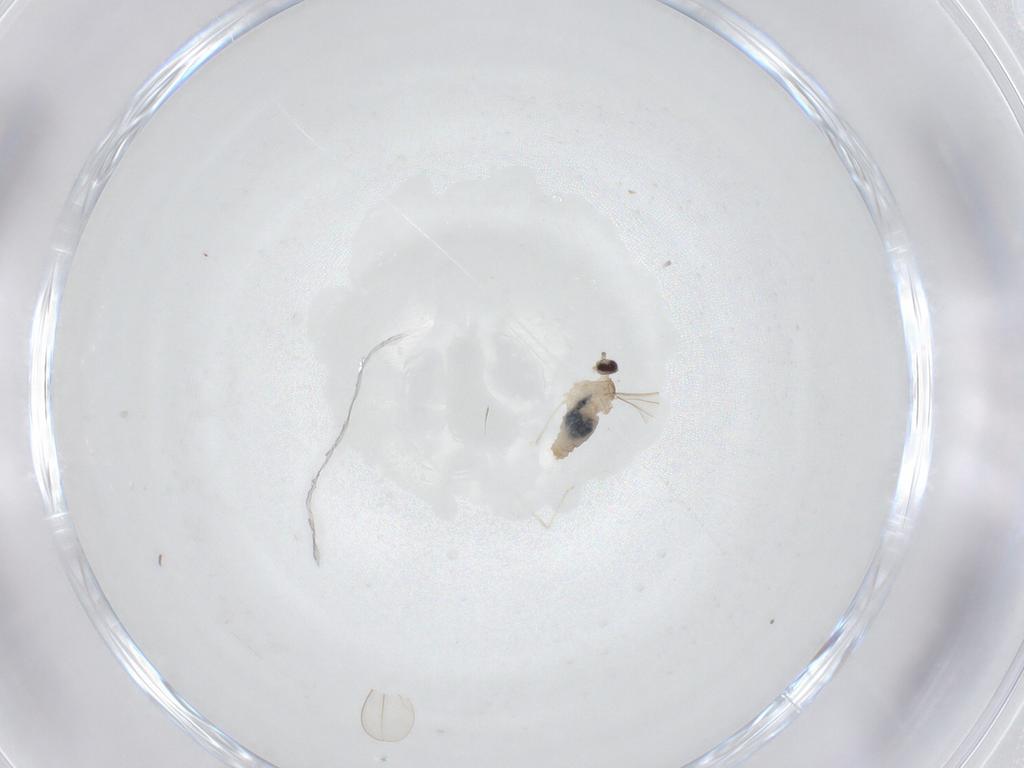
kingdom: Animalia
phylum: Arthropoda
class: Insecta
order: Diptera
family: Cecidomyiidae
